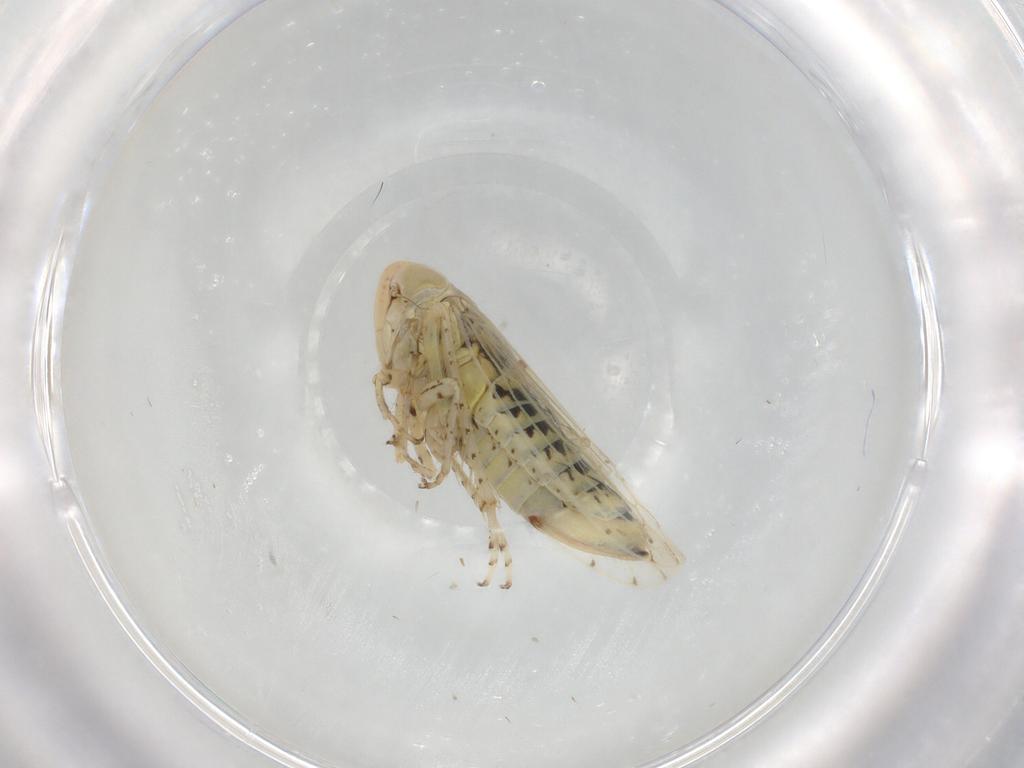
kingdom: Animalia
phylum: Arthropoda
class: Insecta
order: Hemiptera
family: Cicadellidae
